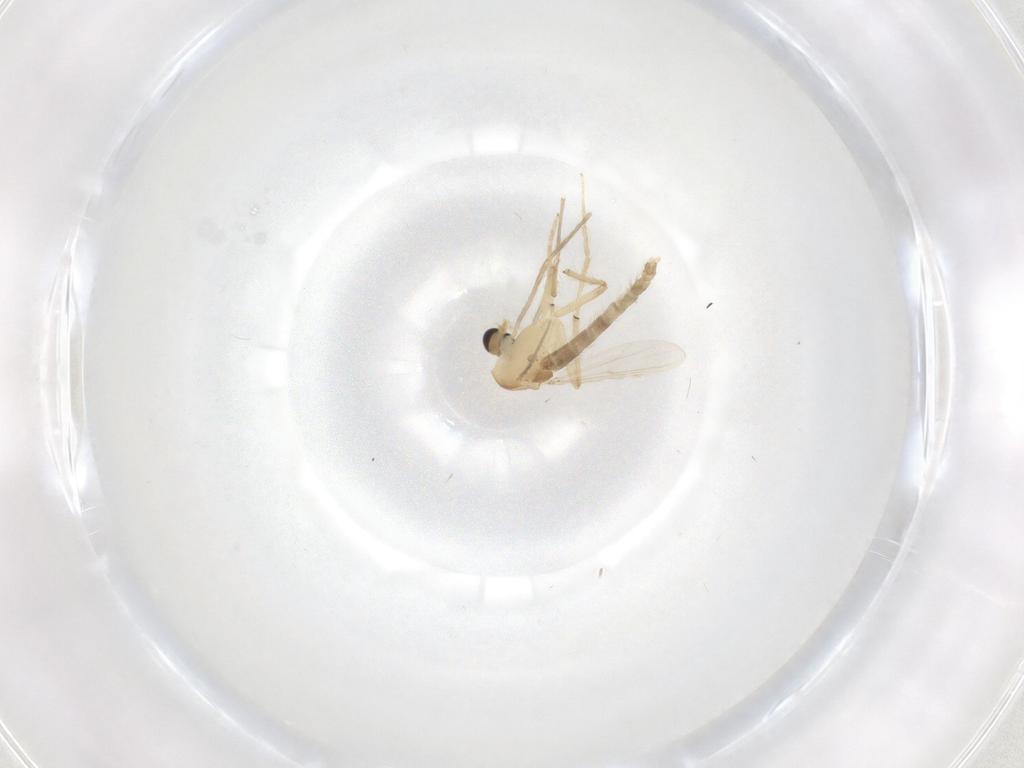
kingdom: Animalia
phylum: Arthropoda
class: Insecta
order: Diptera
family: Chironomidae
